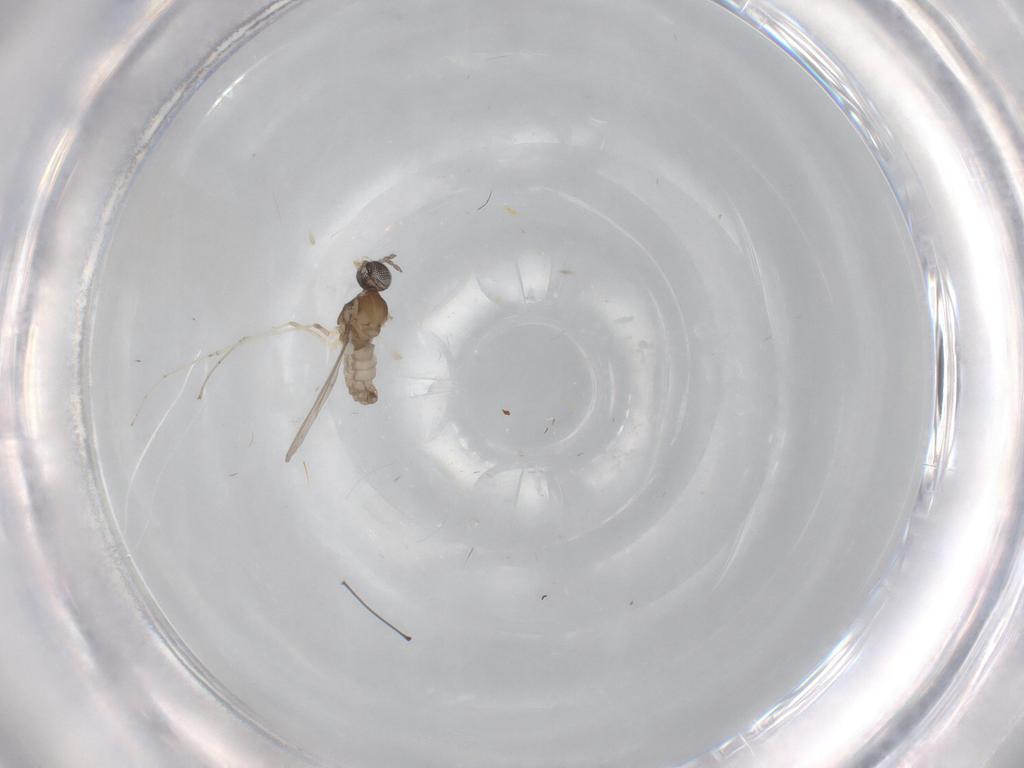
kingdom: Animalia
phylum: Arthropoda
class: Insecta
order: Diptera
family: Cecidomyiidae
